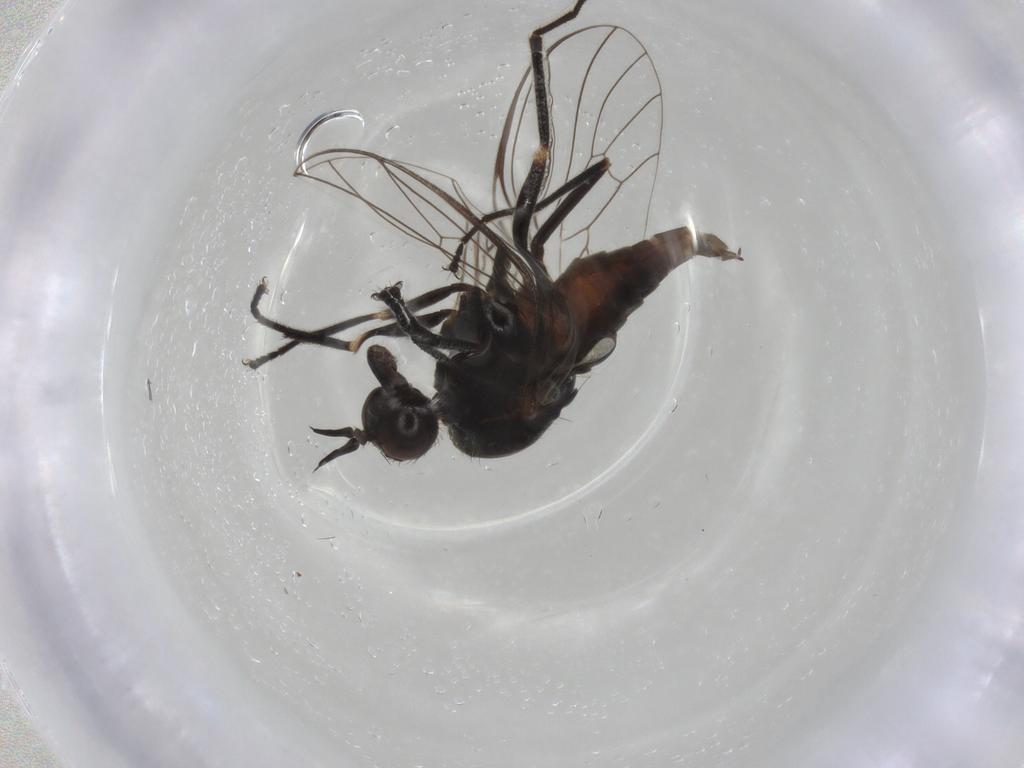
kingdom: Animalia
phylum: Arthropoda
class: Insecta
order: Diptera
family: Empididae
